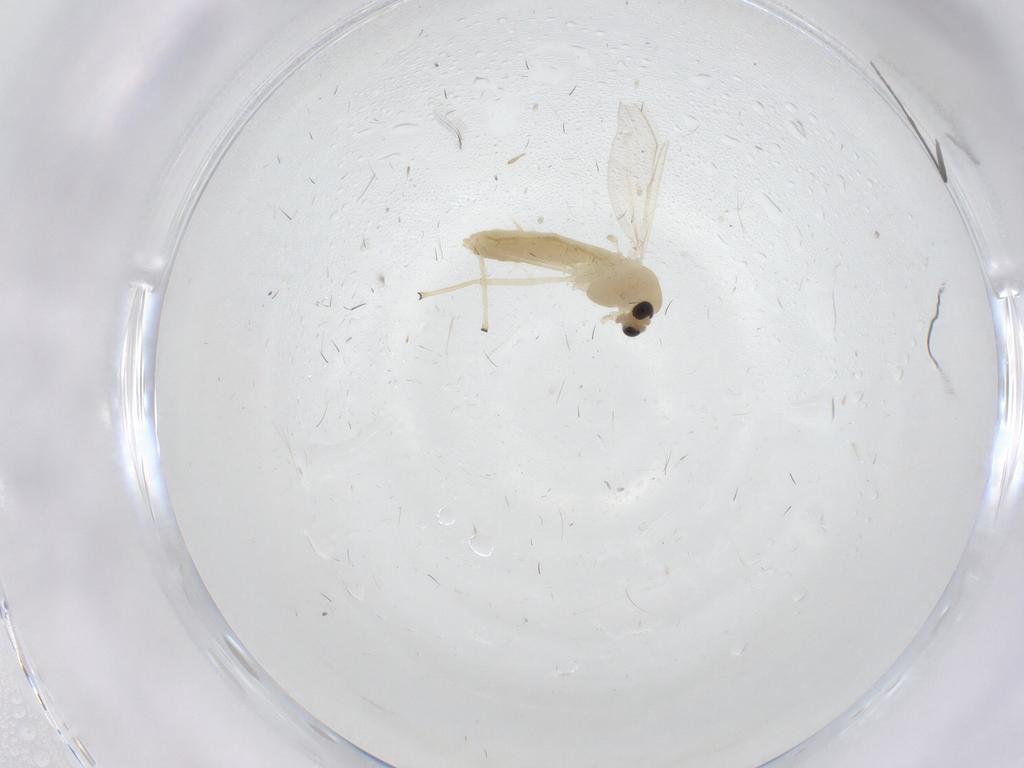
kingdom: Animalia
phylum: Arthropoda
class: Insecta
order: Diptera
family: Chironomidae
